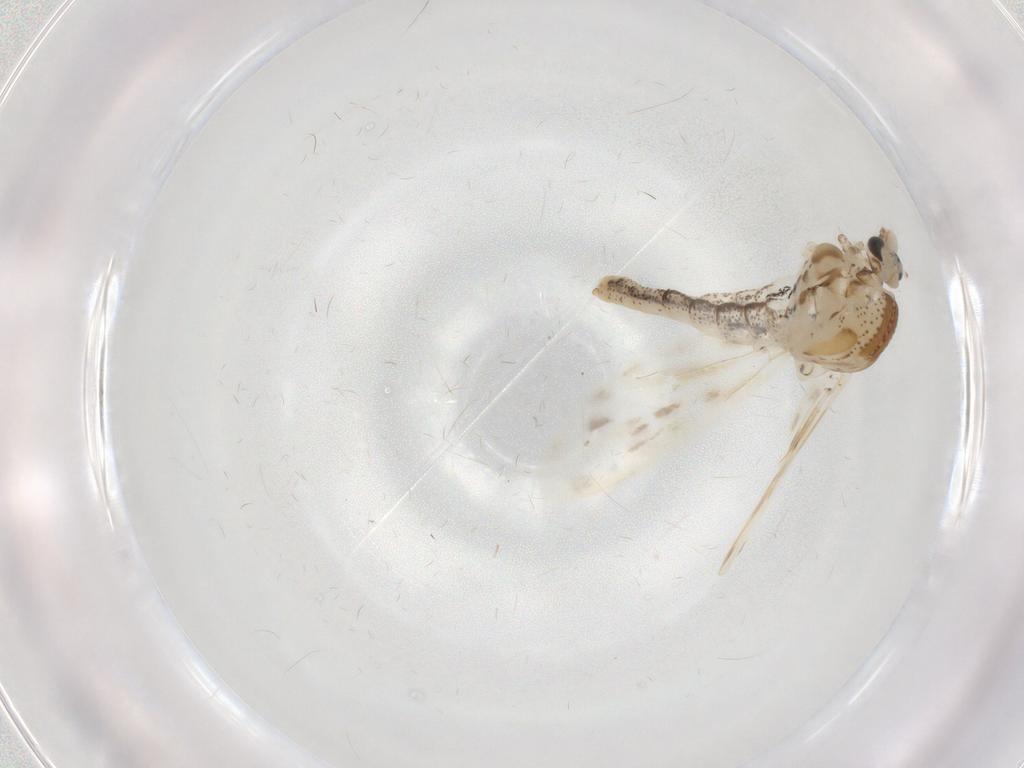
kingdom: Animalia
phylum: Arthropoda
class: Insecta
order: Diptera
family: Chaoboridae
